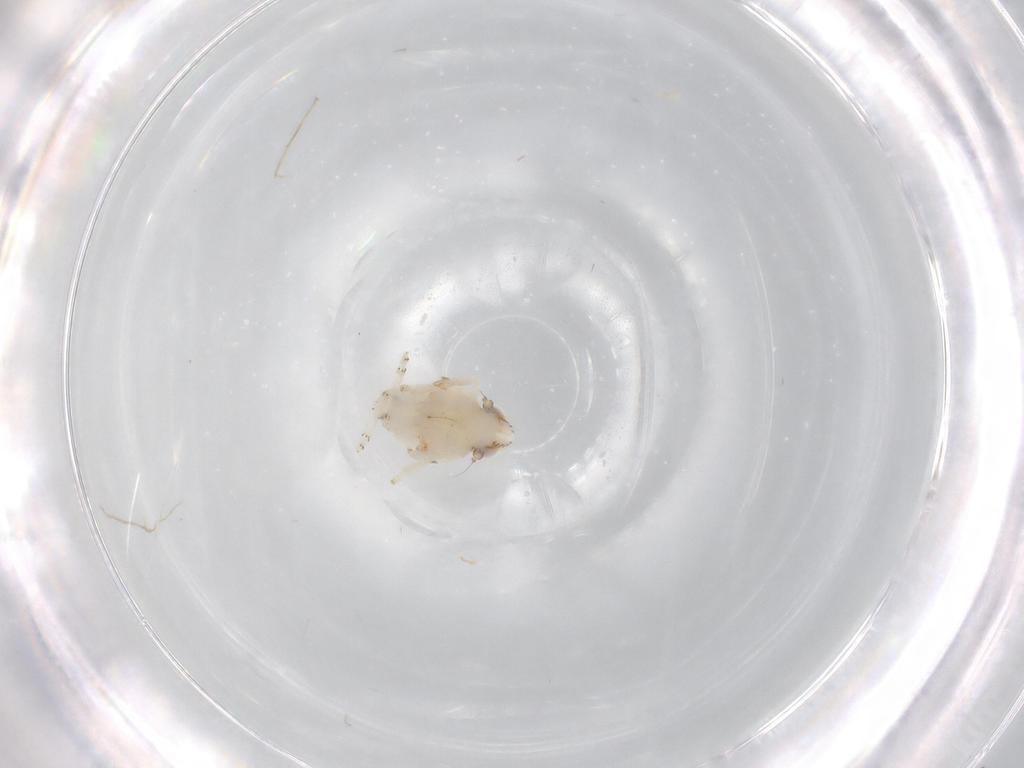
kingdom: Animalia
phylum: Arthropoda
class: Insecta
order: Hemiptera
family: Nogodinidae
